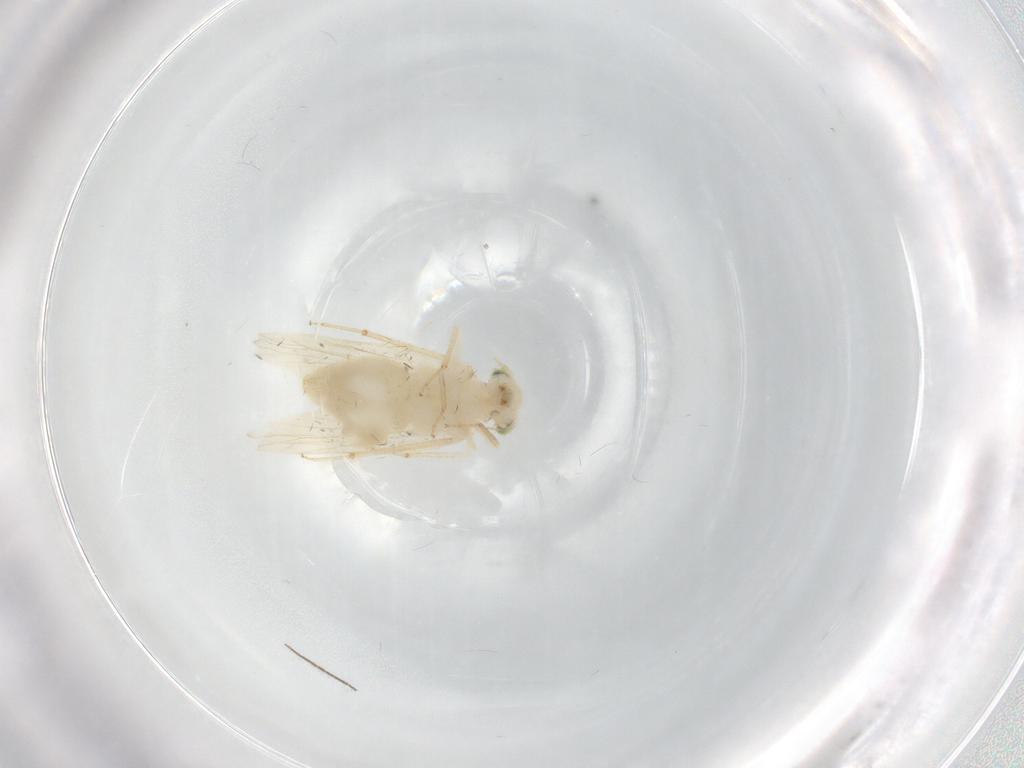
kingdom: Animalia
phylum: Arthropoda
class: Insecta
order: Psocodea
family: Lepidopsocidae
